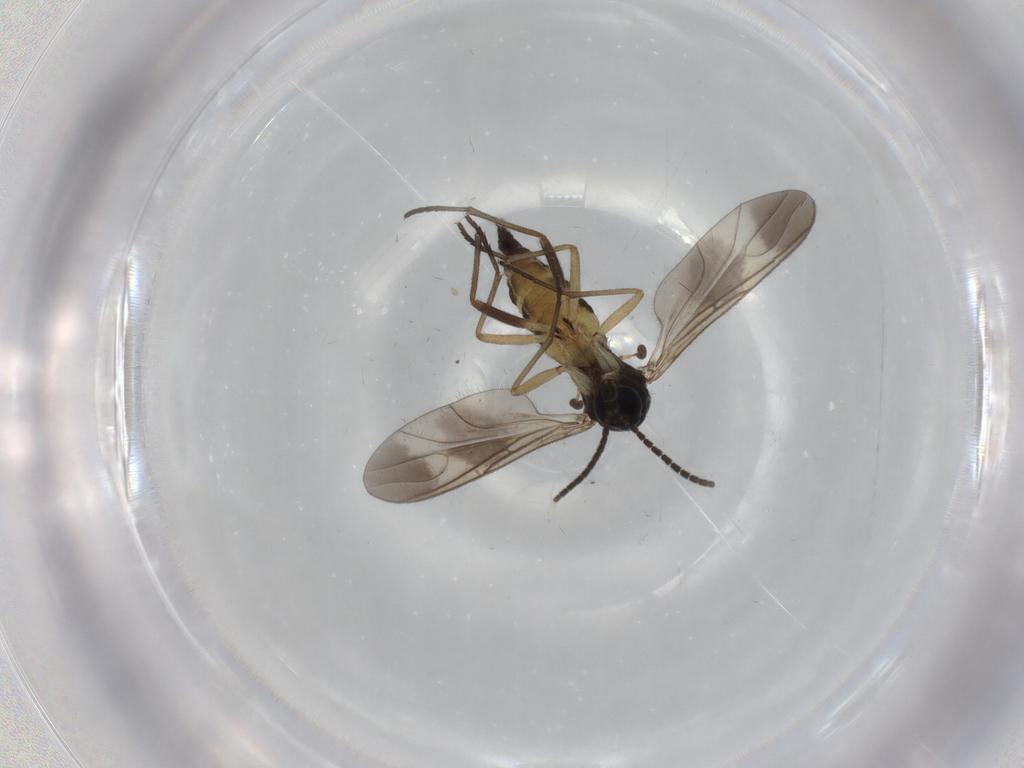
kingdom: Animalia
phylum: Arthropoda
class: Insecta
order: Diptera
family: Sciaridae
